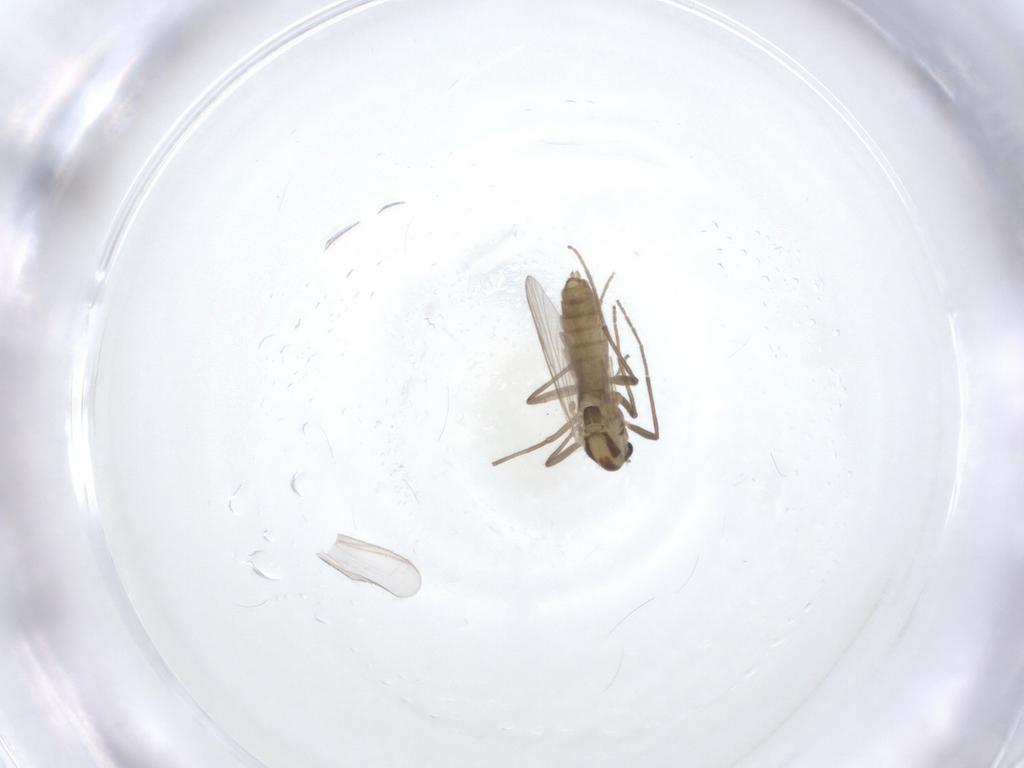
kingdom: Animalia
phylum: Arthropoda
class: Insecta
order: Diptera
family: Chironomidae
